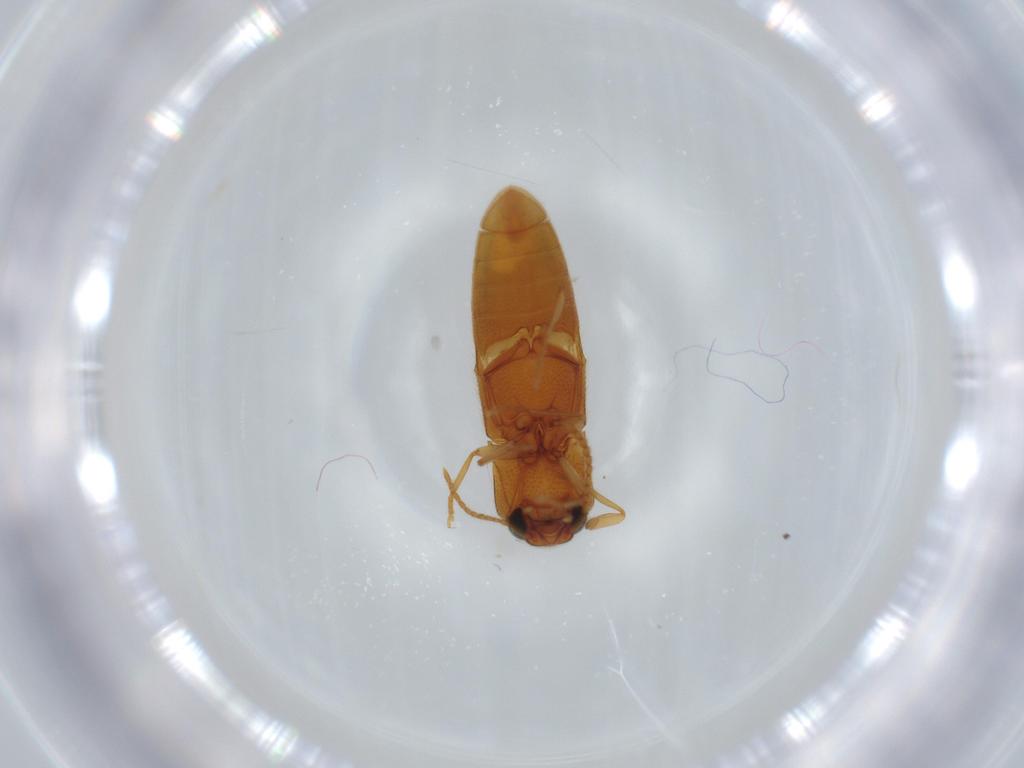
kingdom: Animalia
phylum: Arthropoda
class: Insecta
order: Coleoptera
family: Elateridae
